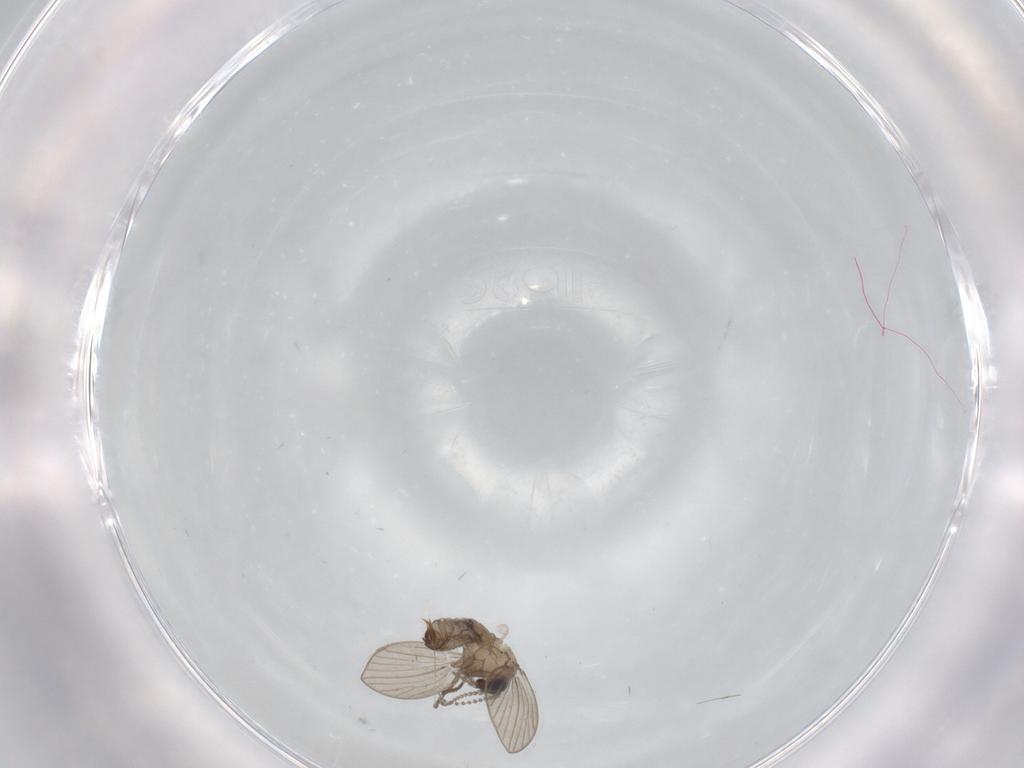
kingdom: Animalia
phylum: Arthropoda
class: Insecta
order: Diptera
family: Psychodidae
